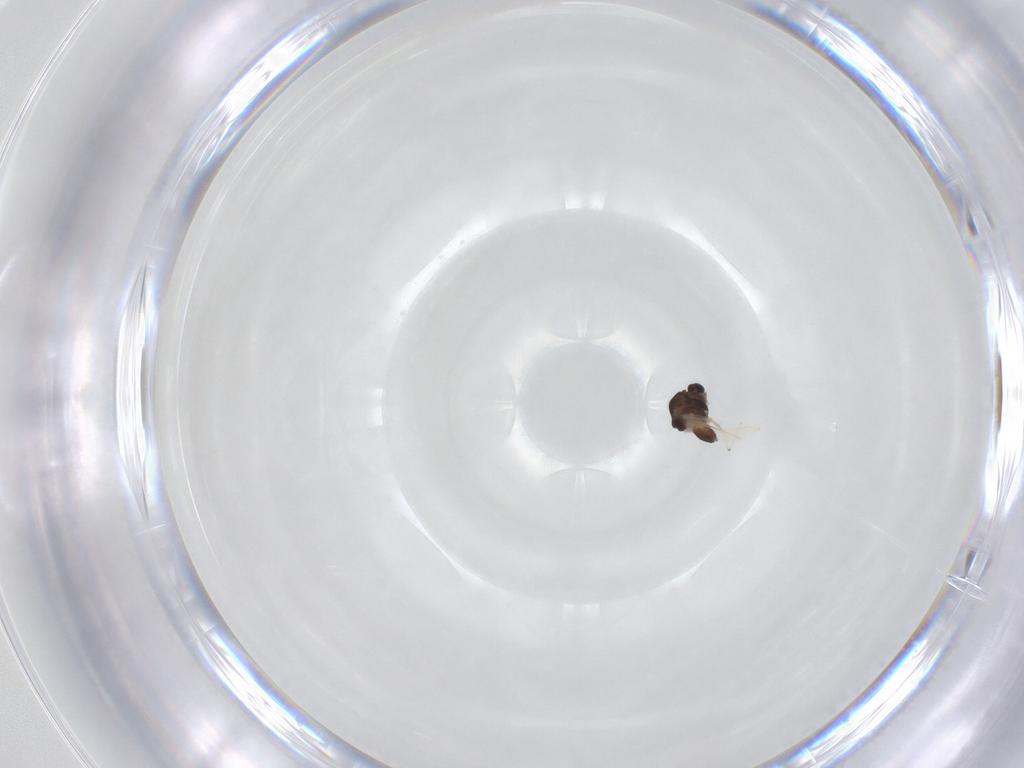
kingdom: Animalia
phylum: Arthropoda
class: Insecta
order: Diptera
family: Chironomidae
